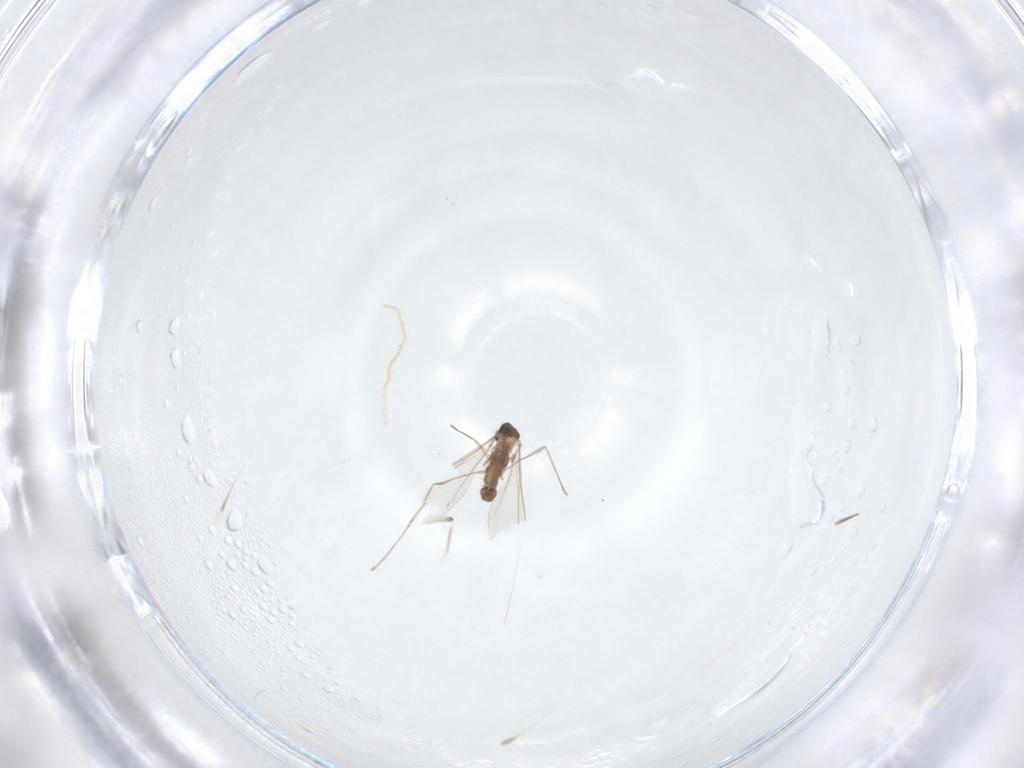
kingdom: Animalia
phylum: Arthropoda
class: Insecta
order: Diptera
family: Cecidomyiidae
